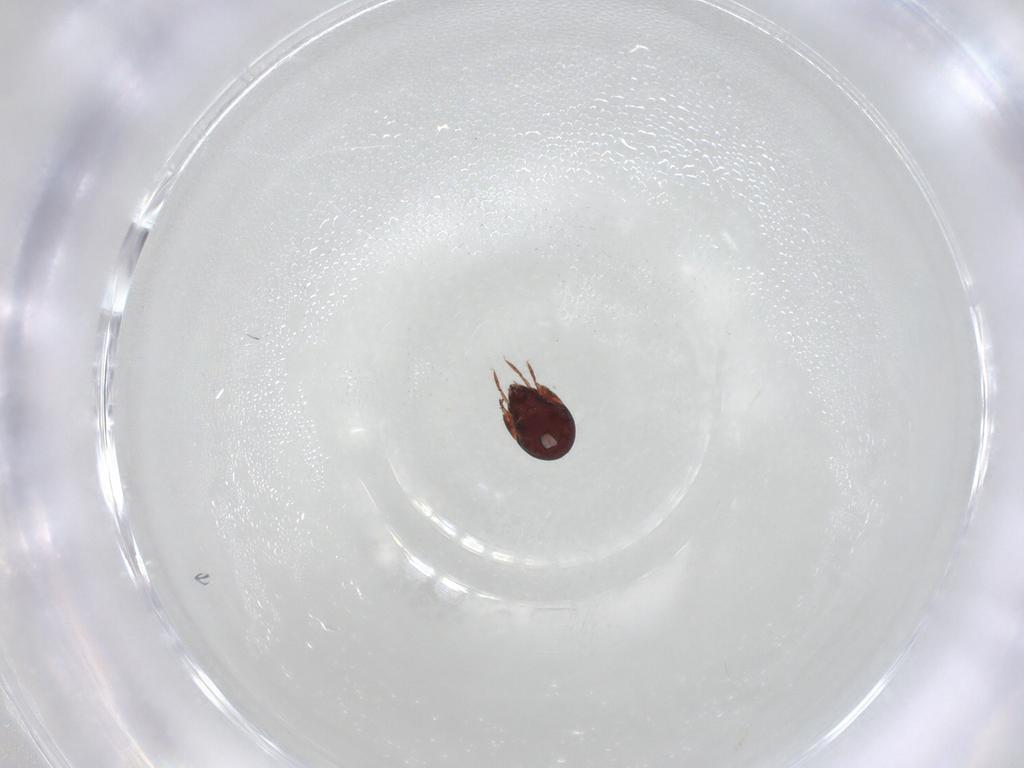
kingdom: Animalia
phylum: Arthropoda
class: Arachnida
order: Sarcoptiformes
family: Humerobatidae
